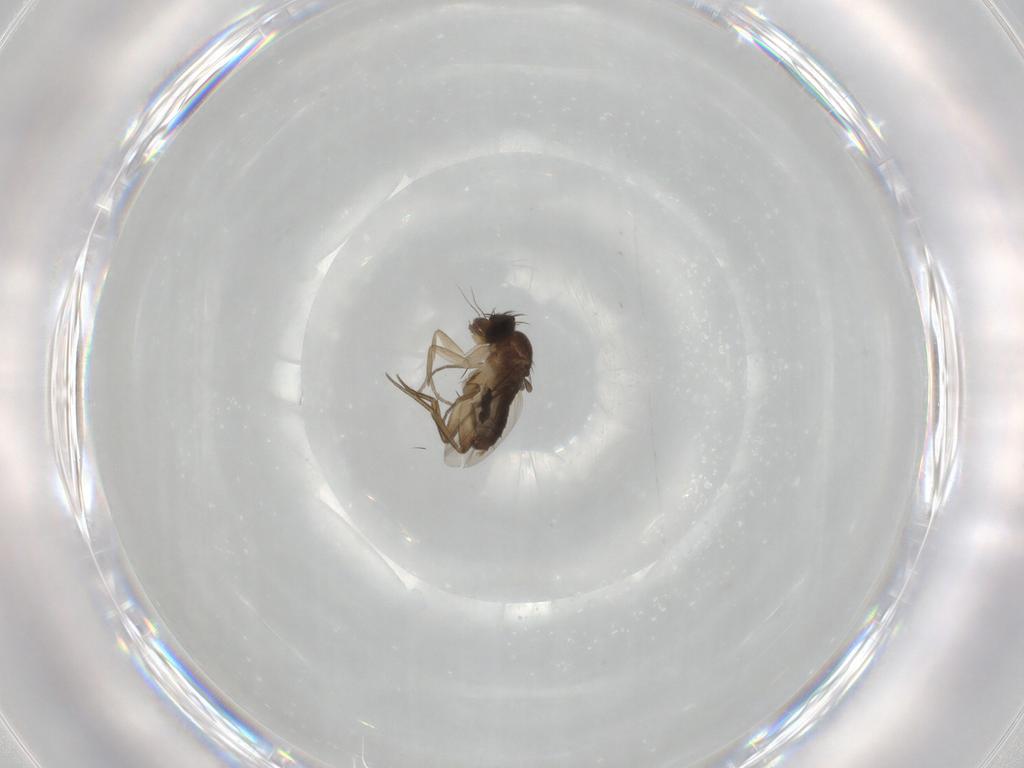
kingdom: Animalia
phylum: Arthropoda
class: Insecta
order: Diptera
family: Phoridae
